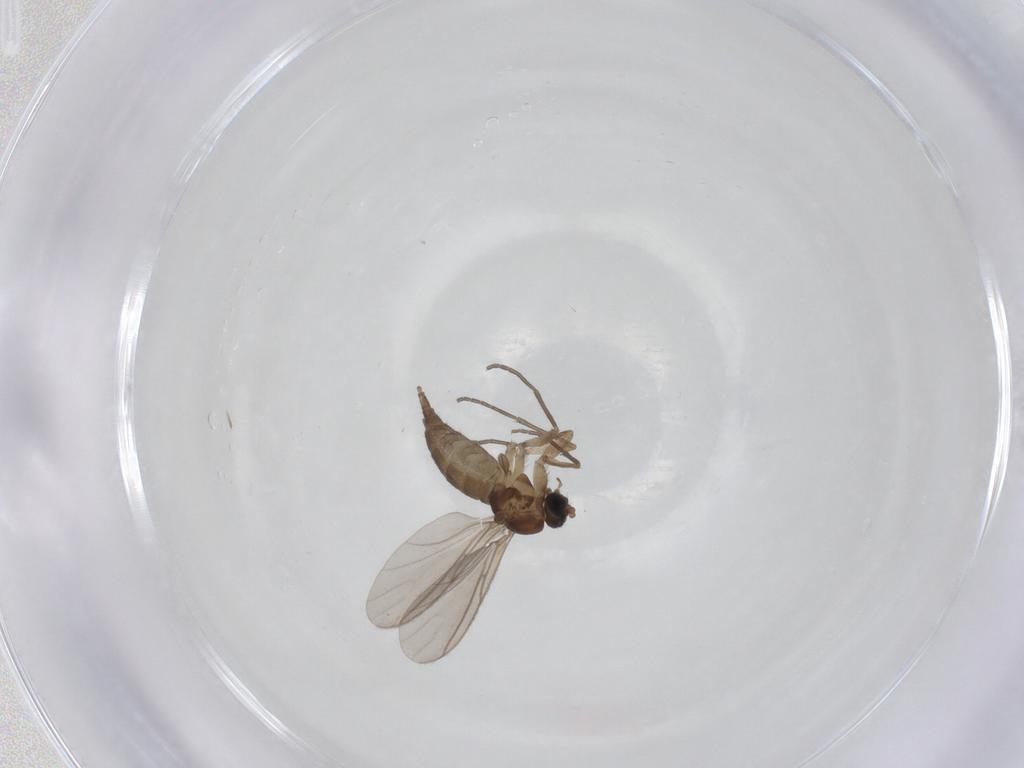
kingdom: Animalia
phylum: Arthropoda
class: Insecta
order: Diptera
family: Sciaridae
